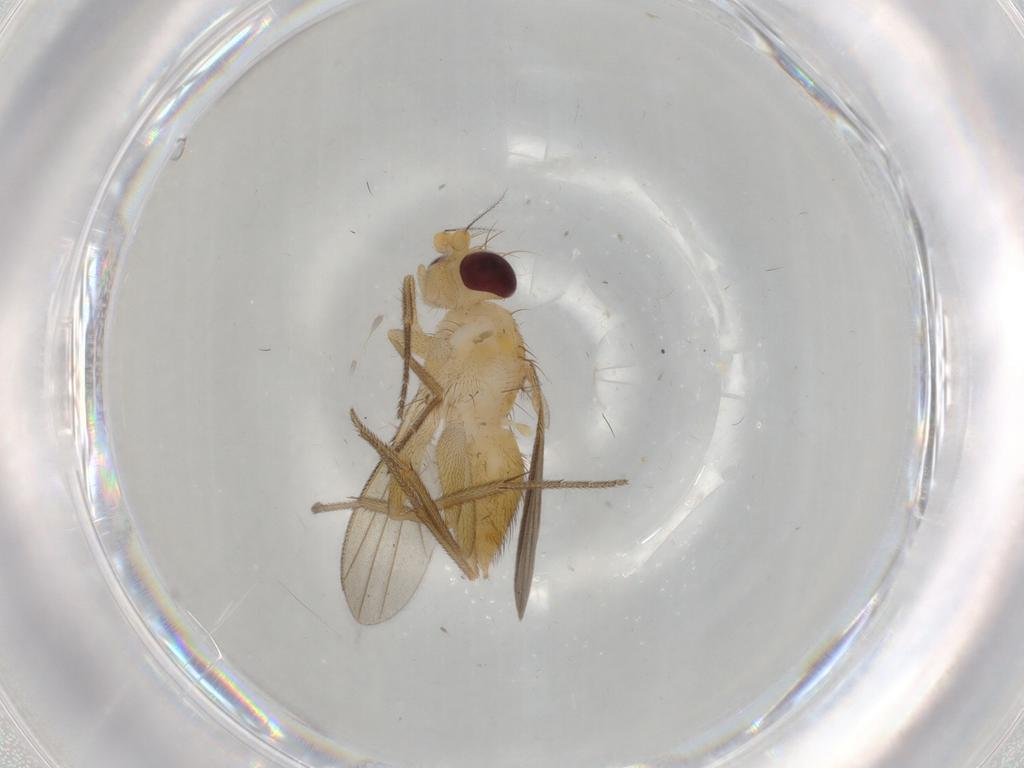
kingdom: Animalia
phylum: Arthropoda
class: Insecta
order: Diptera
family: Clusiidae
